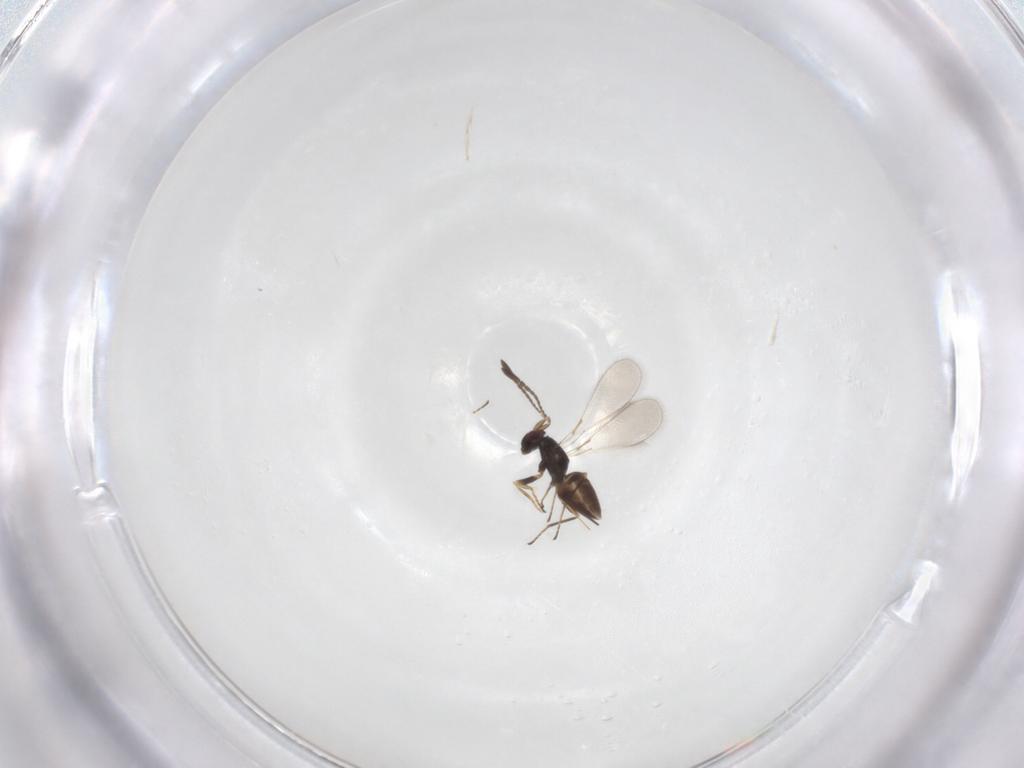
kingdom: Animalia
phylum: Arthropoda
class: Insecta
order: Hymenoptera
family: Mymaridae
